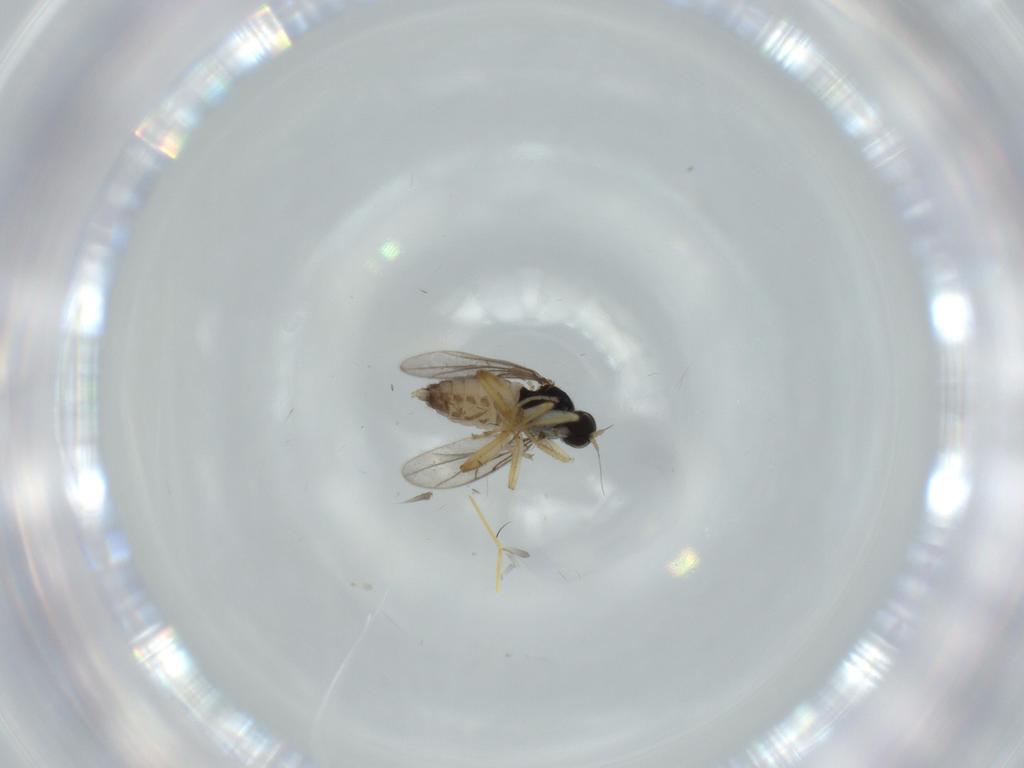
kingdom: Animalia
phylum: Arthropoda
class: Insecta
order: Diptera
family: Hybotidae
